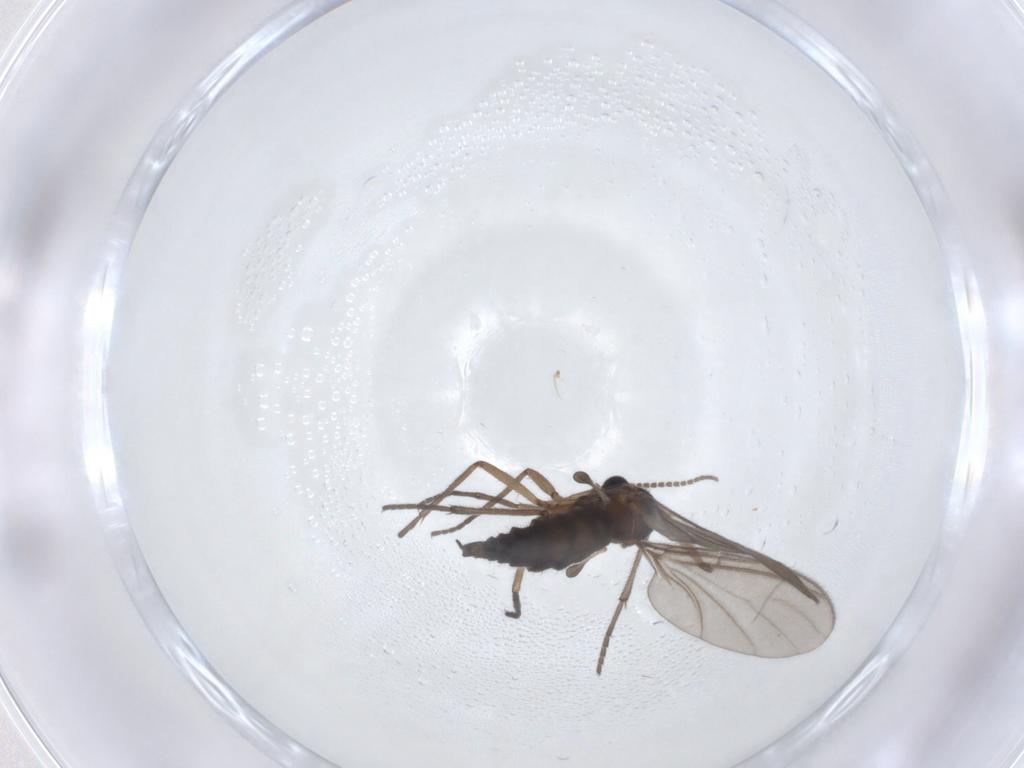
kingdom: Animalia
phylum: Arthropoda
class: Insecta
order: Diptera
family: Sciaridae
